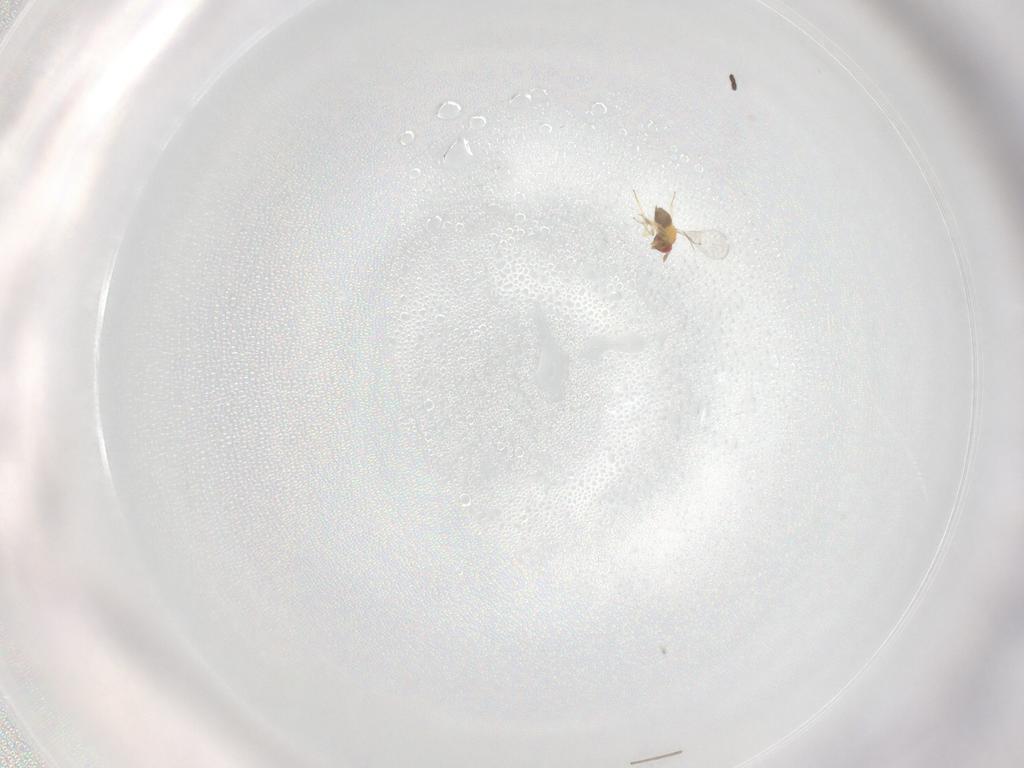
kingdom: Animalia
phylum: Arthropoda
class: Insecta
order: Hymenoptera
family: Trichogrammatidae
